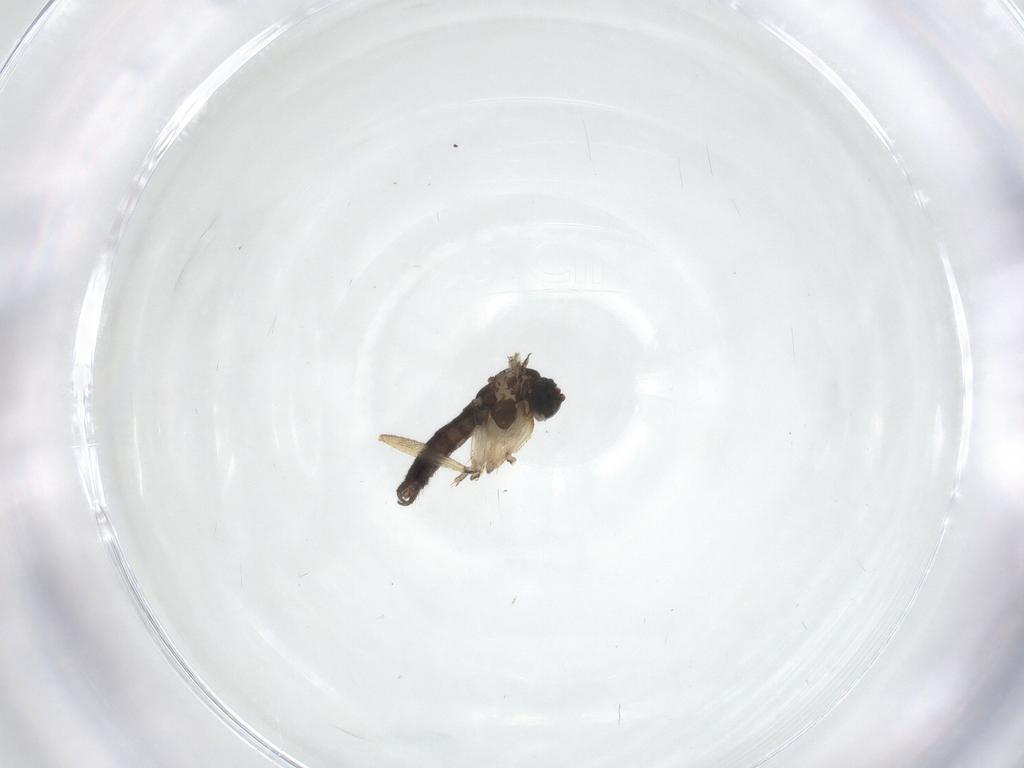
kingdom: Animalia
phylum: Arthropoda
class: Insecta
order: Diptera
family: Sciaridae
